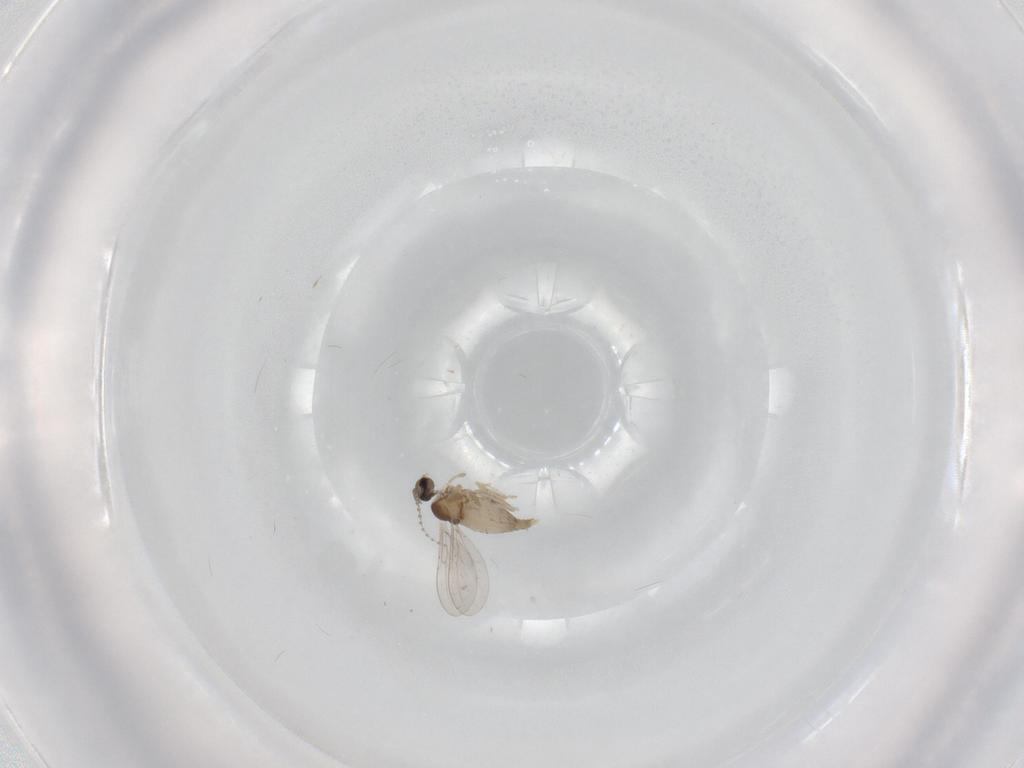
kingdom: Animalia
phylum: Arthropoda
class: Insecta
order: Diptera
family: Cecidomyiidae
